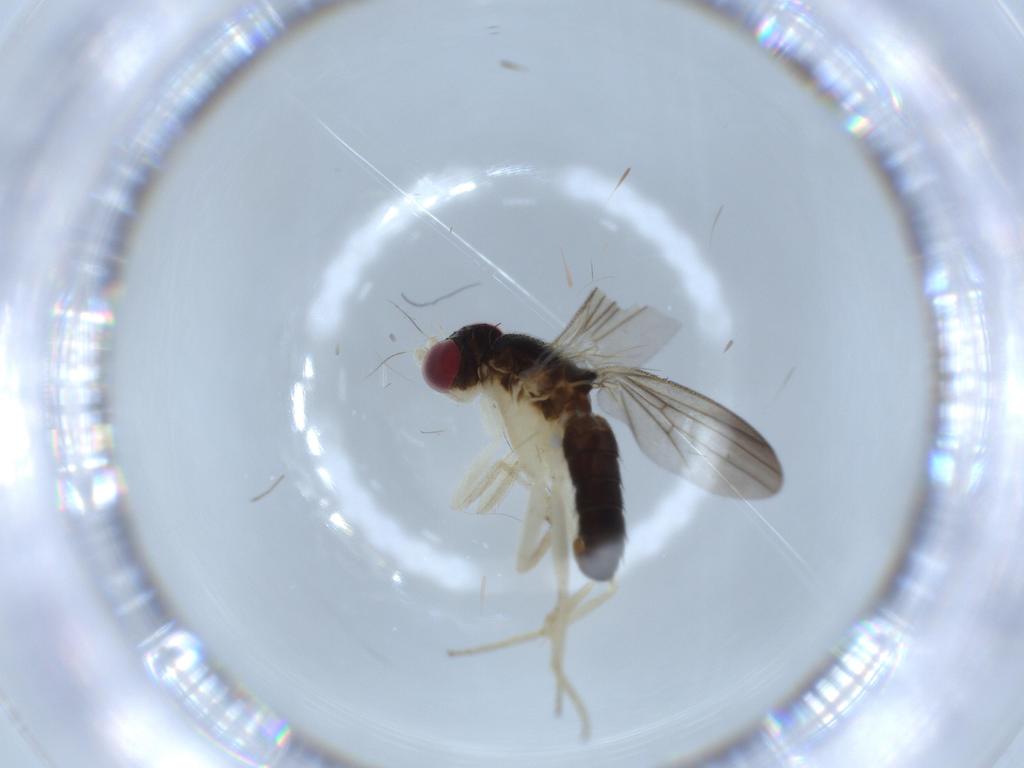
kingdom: Animalia
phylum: Arthropoda
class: Insecta
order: Diptera
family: Clusiidae
